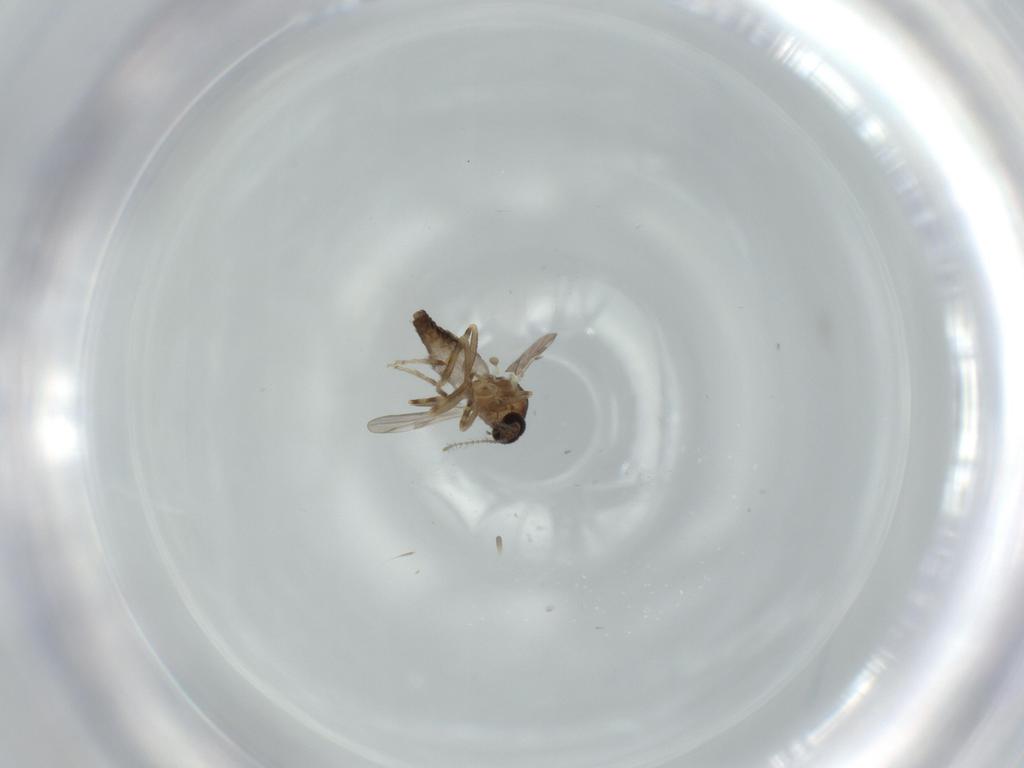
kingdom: Animalia
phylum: Arthropoda
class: Insecta
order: Diptera
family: Ceratopogonidae
